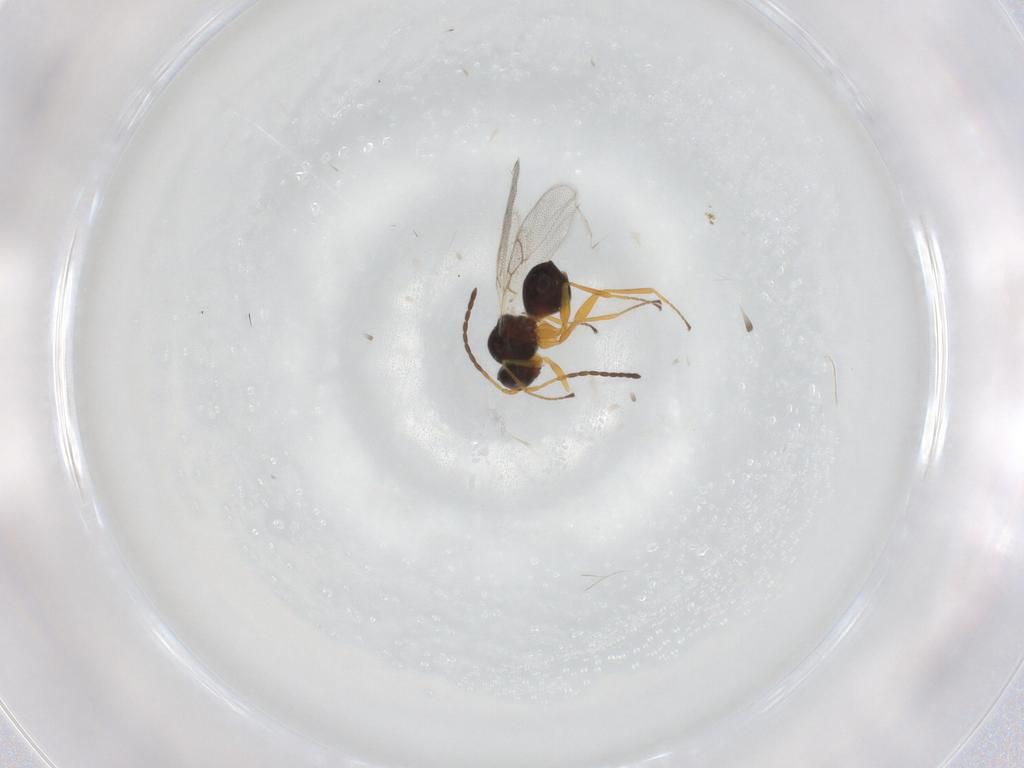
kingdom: Animalia
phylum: Arthropoda
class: Insecta
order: Hymenoptera
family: Figitidae
